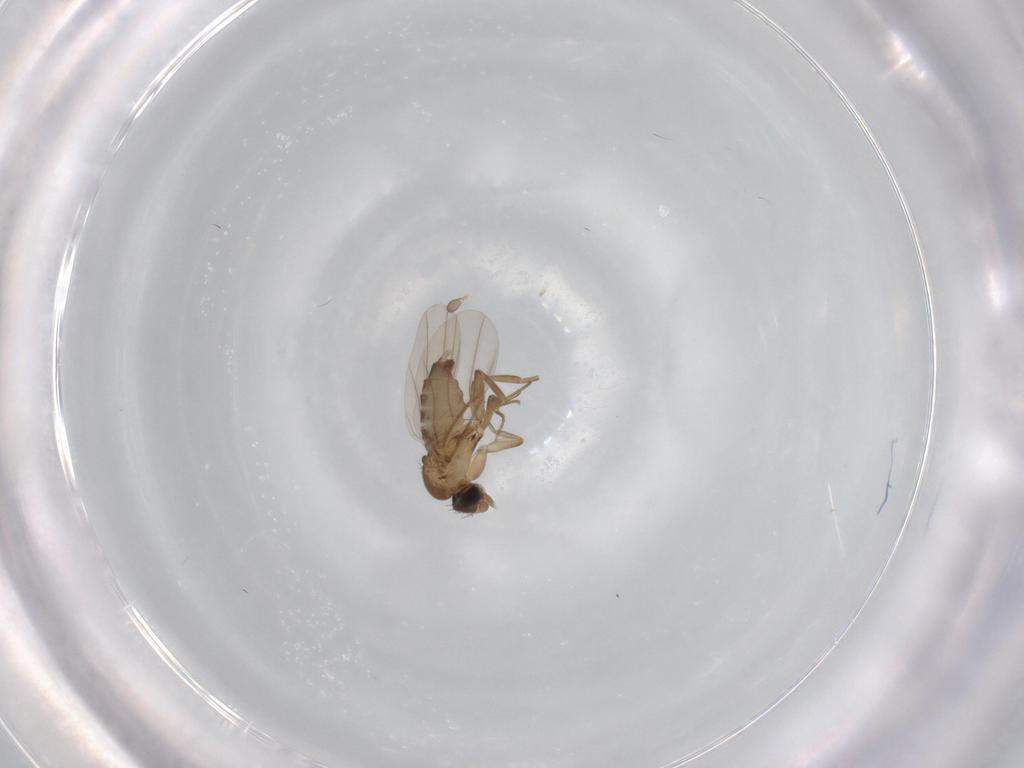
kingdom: Animalia
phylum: Arthropoda
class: Insecta
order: Diptera
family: Phoridae
